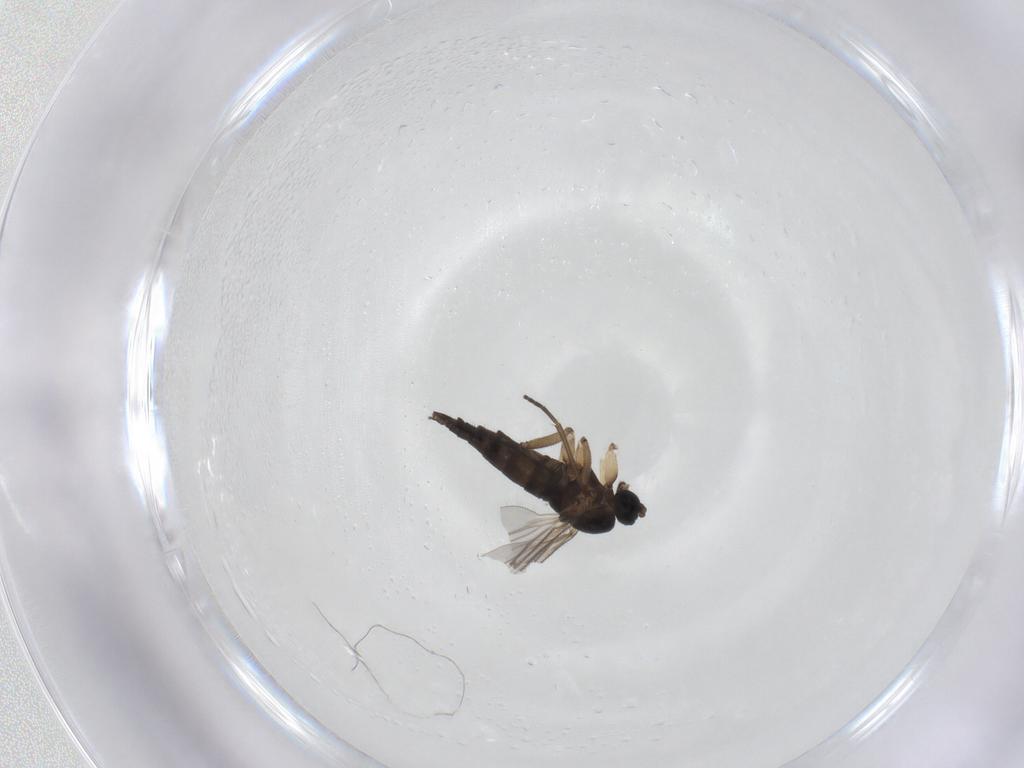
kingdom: Animalia
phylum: Arthropoda
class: Insecta
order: Diptera
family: Sciaridae
